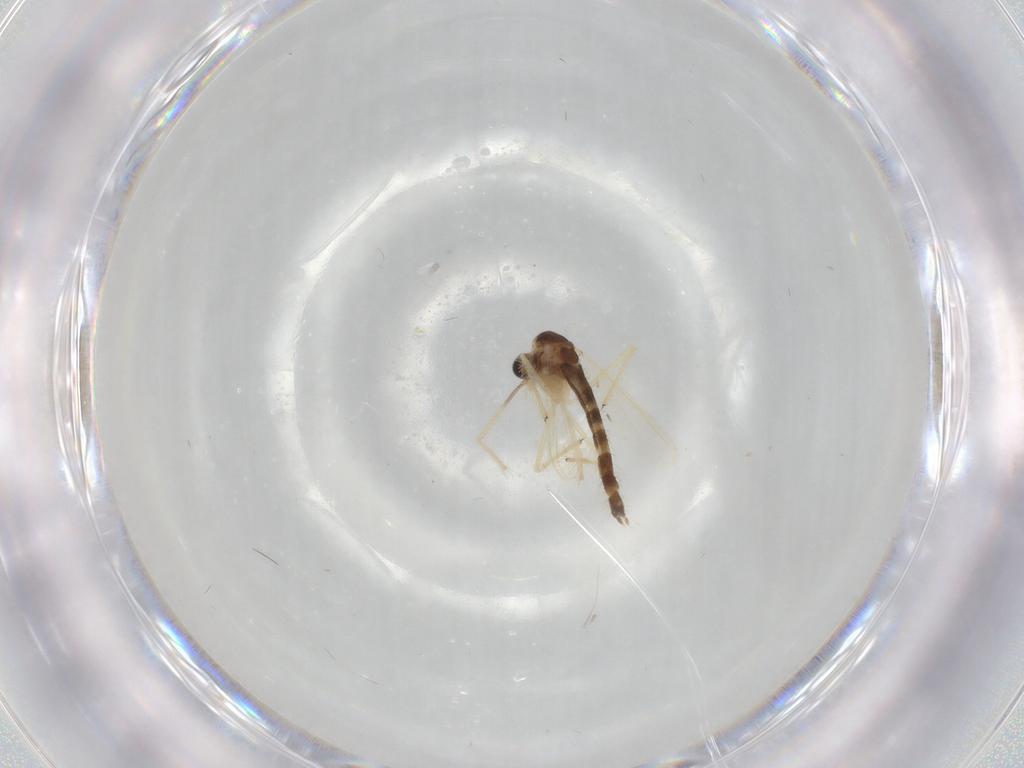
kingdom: Animalia
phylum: Arthropoda
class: Insecta
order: Diptera
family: Chironomidae
